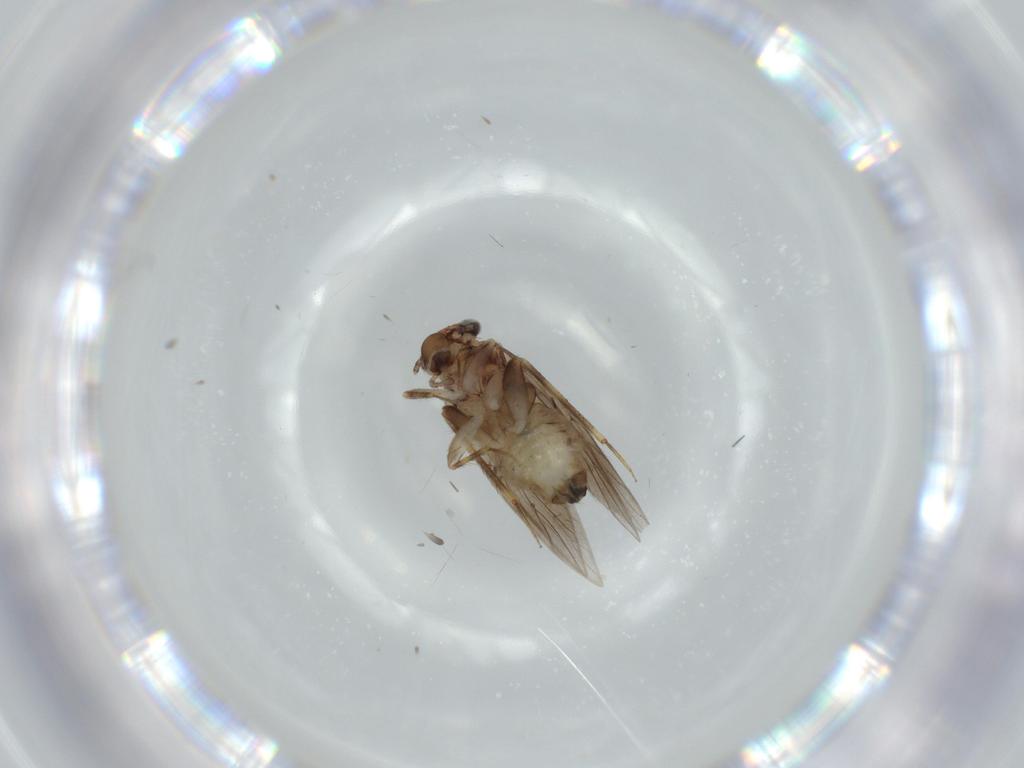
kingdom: Animalia
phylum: Arthropoda
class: Insecta
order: Psocodea
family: Lepidopsocidae
